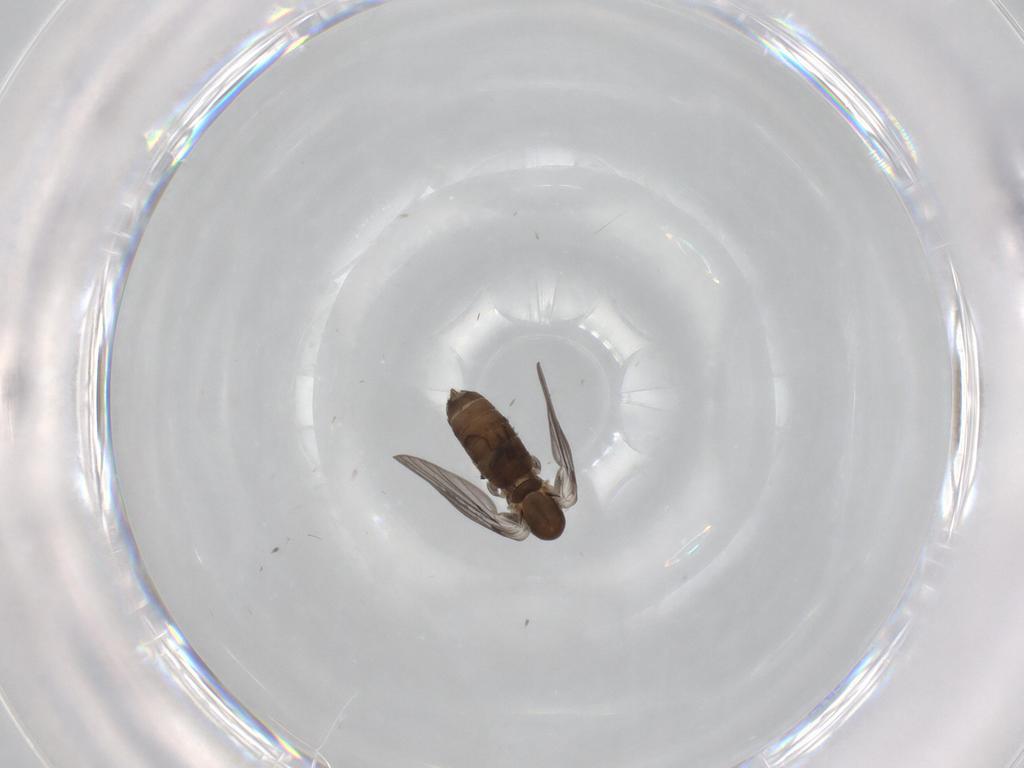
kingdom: Animalia
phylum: Arthropoda
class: Insecta
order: Diptera
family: Psychodidae
